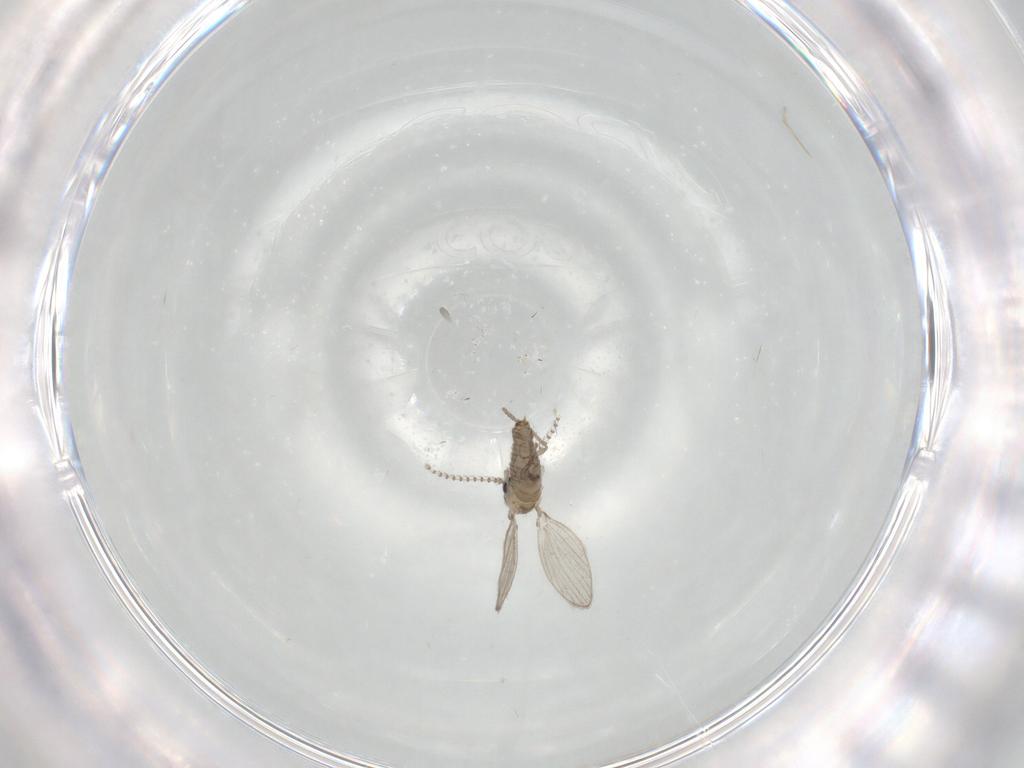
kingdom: Animalia
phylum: Arthropoda
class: Insecta
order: Diptera
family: Psychodidae
